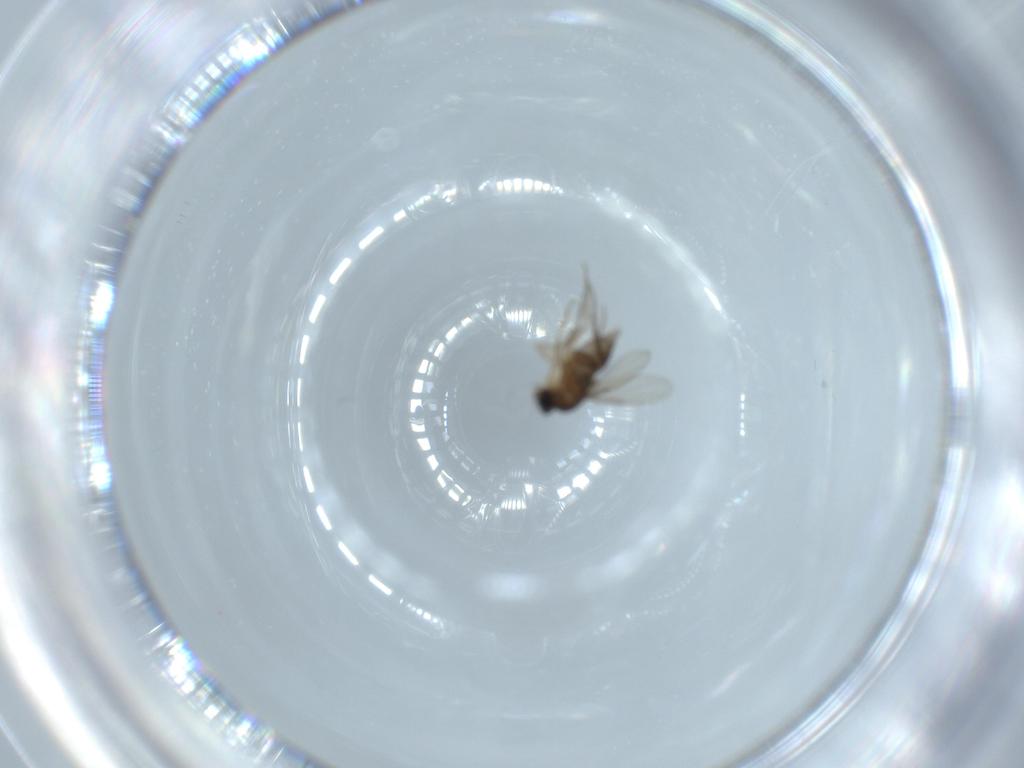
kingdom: Animalia
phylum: Arthropoda
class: Insecta
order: Diptera
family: Phoridae
